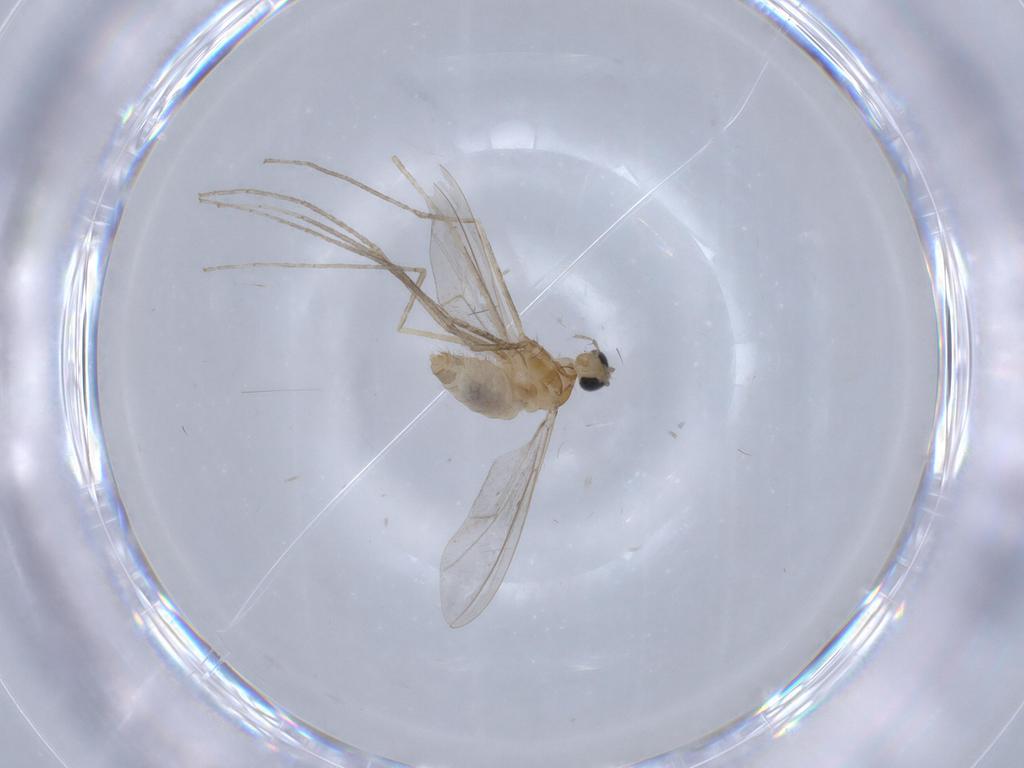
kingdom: Animalia
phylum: Arthropoda
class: Insecta
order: Diptera
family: Cecidomyiidae
